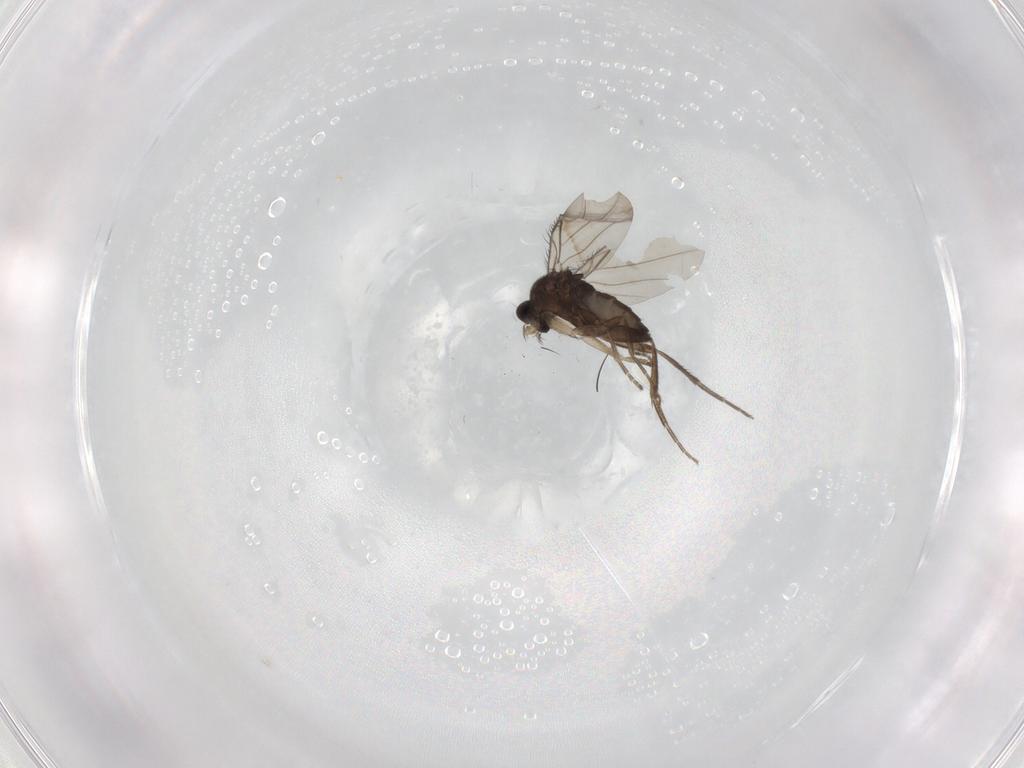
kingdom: Animalia
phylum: Arthropoda
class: Insecta
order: Diptera
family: Phoridae
